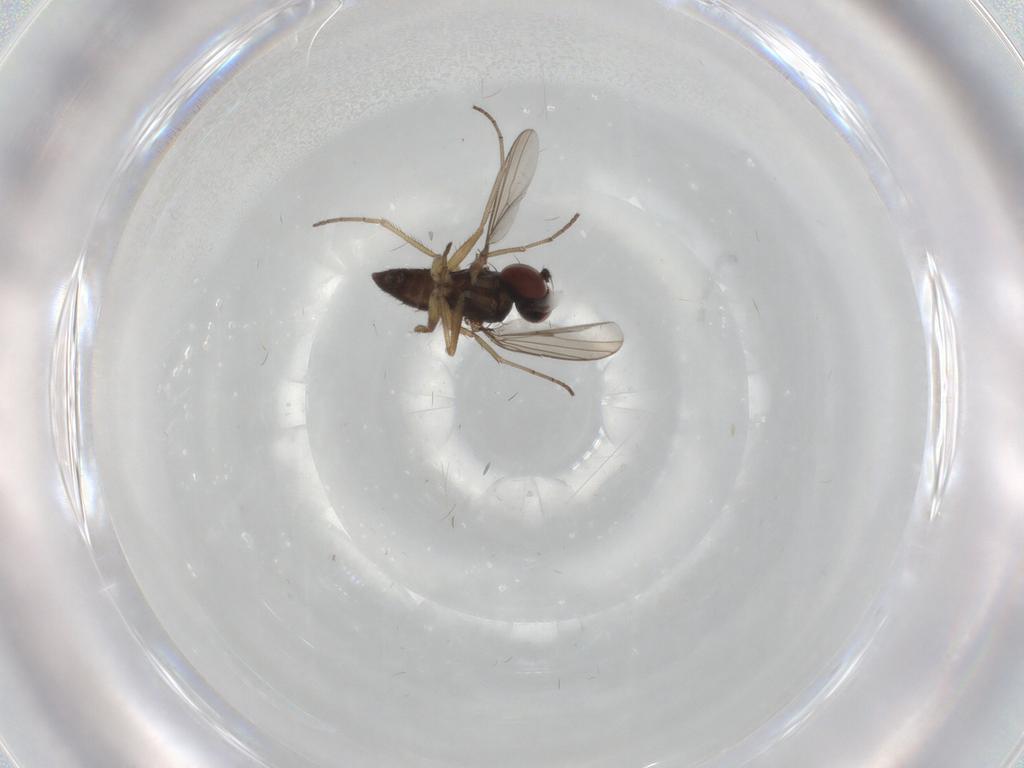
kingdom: Animalia
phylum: Arthropoda
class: Insecta
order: Diptera
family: Dolichopodidae
